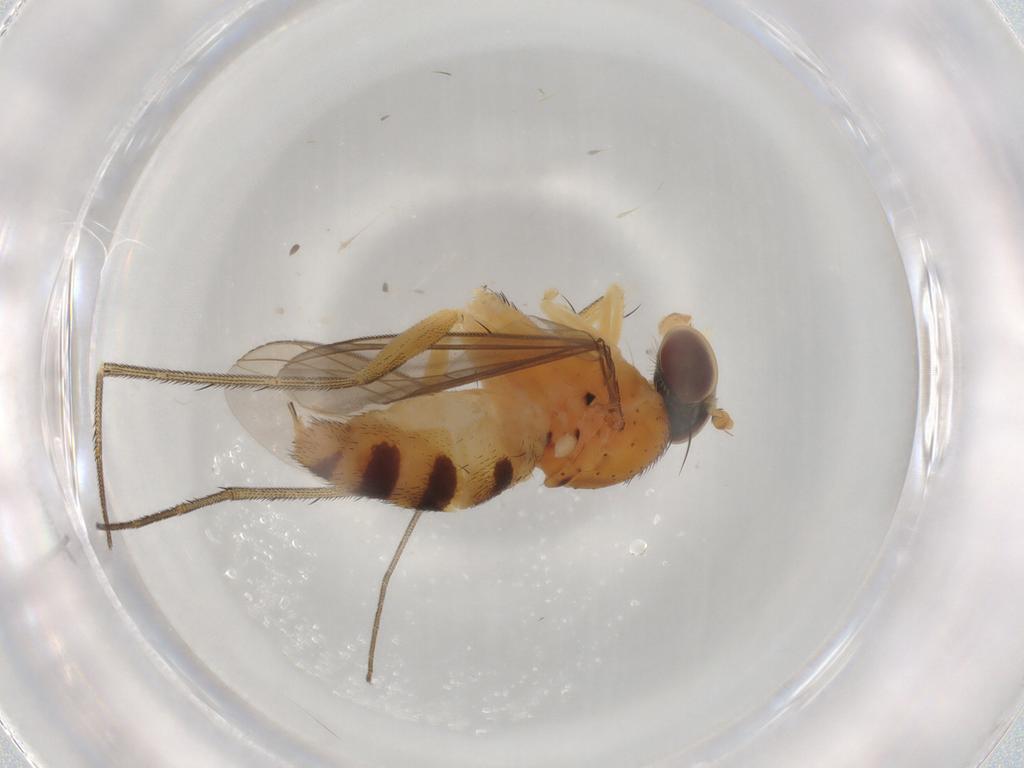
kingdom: Animalia
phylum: Arthropoda
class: Insecta
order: Diptera
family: Dolichopodidae
